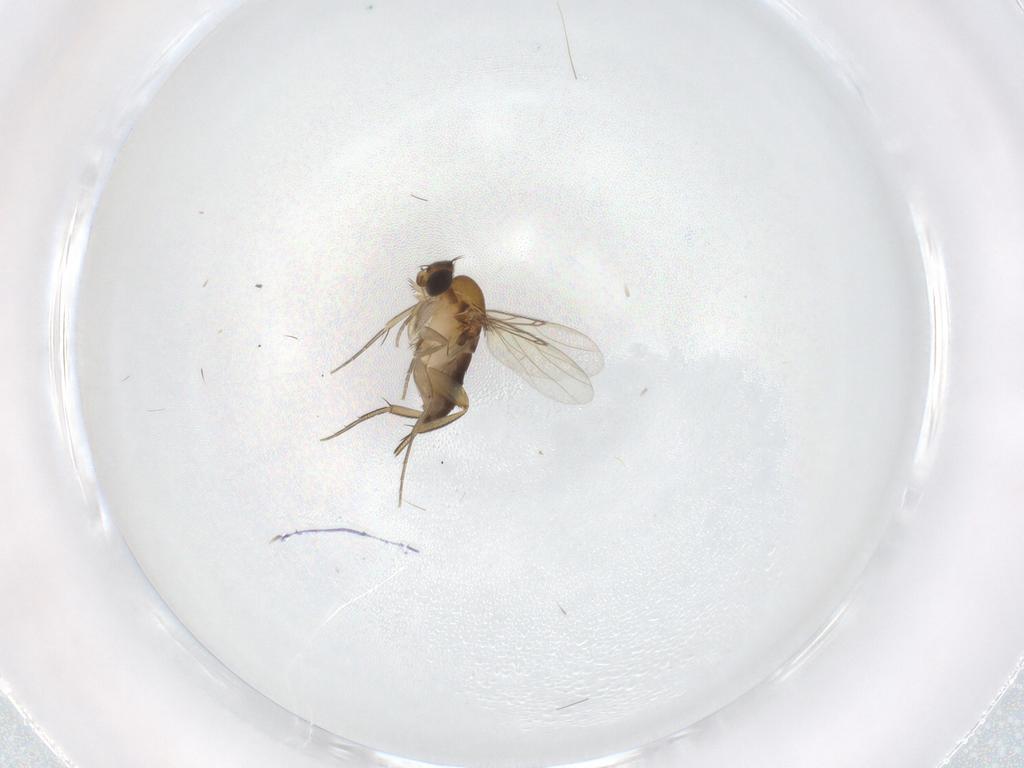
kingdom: Animalia
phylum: Arthropoda
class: Insecta
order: Diptera
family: Phoridae
